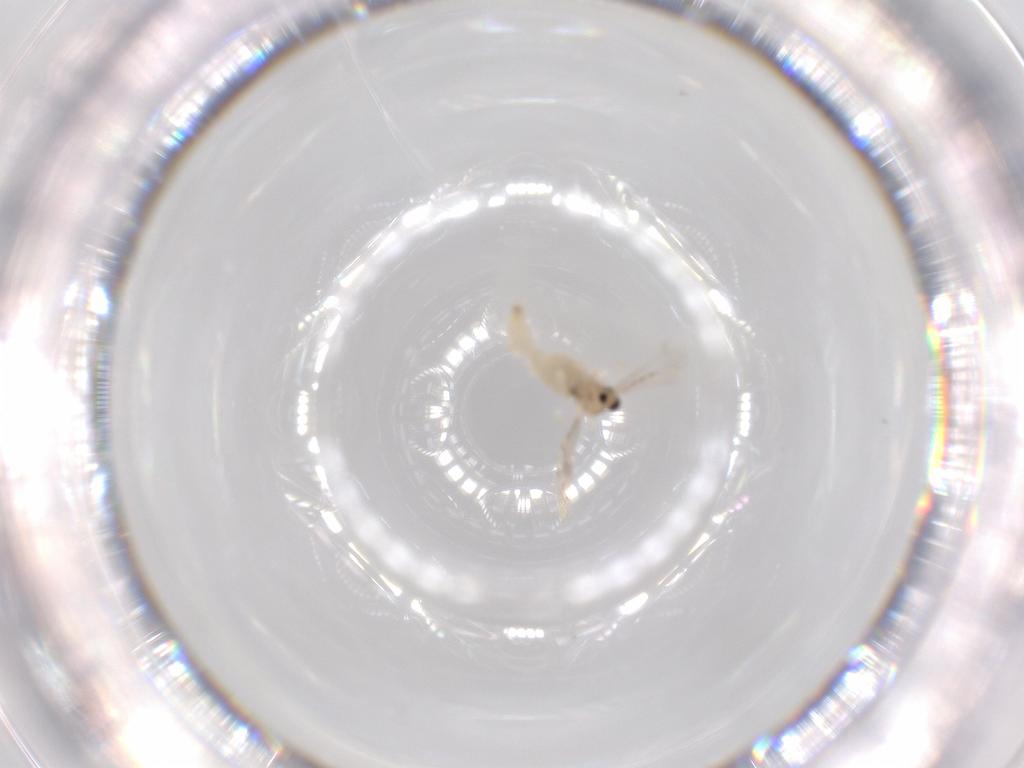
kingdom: Animalia
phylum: Arthropoda
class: Insecta
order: Diptera
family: Cecidomyiidae
